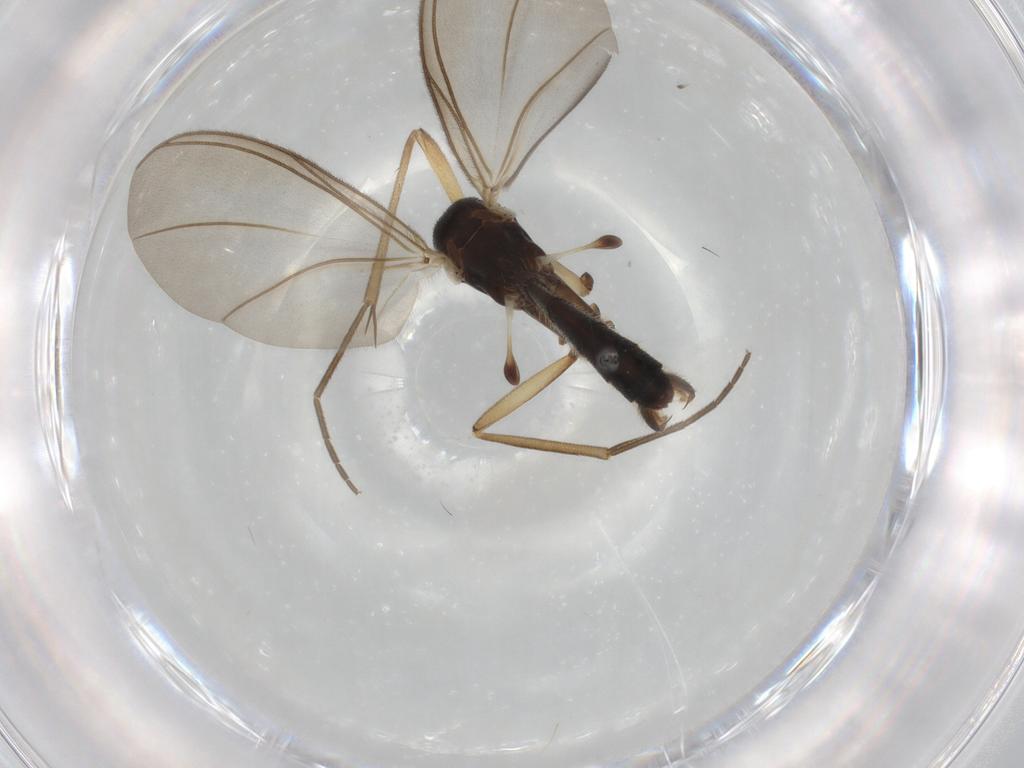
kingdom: Animalia
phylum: Arthropoda
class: Insecta
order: Diptera
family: Mycetophilidae
